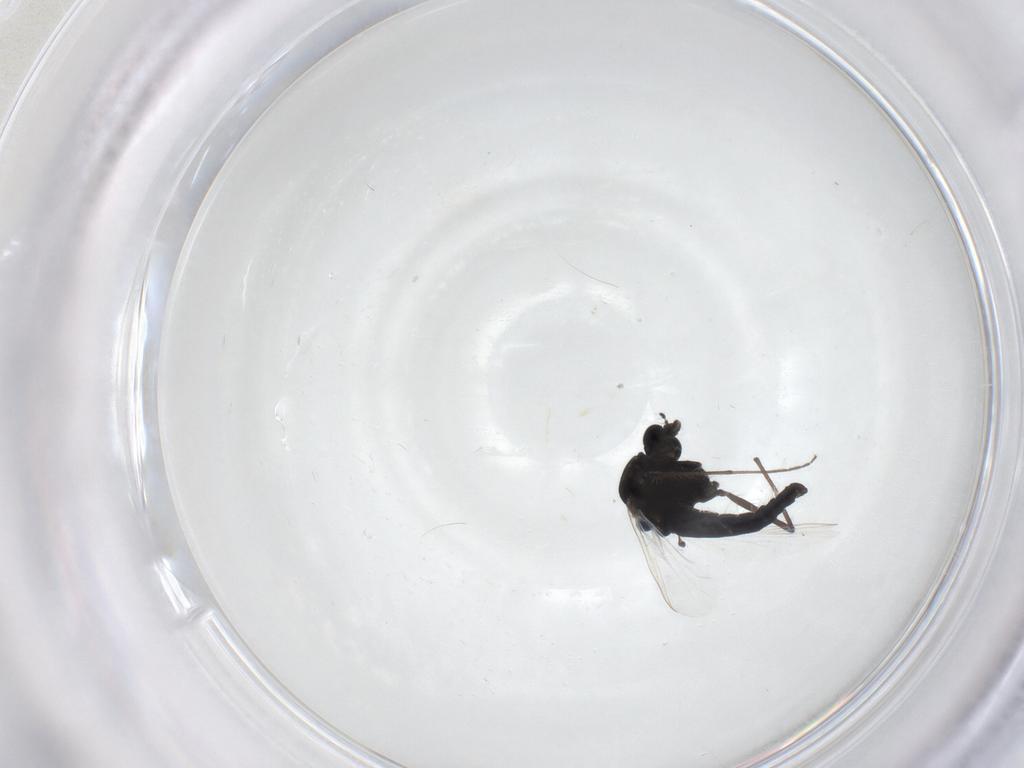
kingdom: Animalia
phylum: Arthropoda
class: Insecta
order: Diptera
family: Chironomidae
